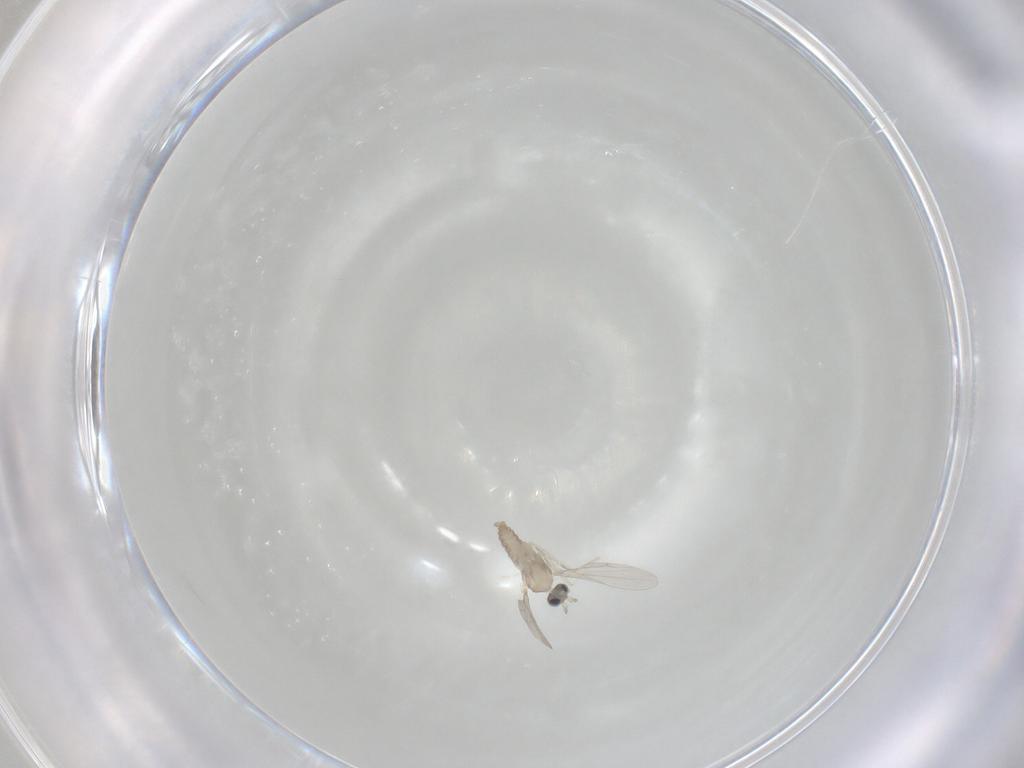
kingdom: Animalia
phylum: Arthropoda
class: Insecta
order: Diptera
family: Cecidomyiidae
